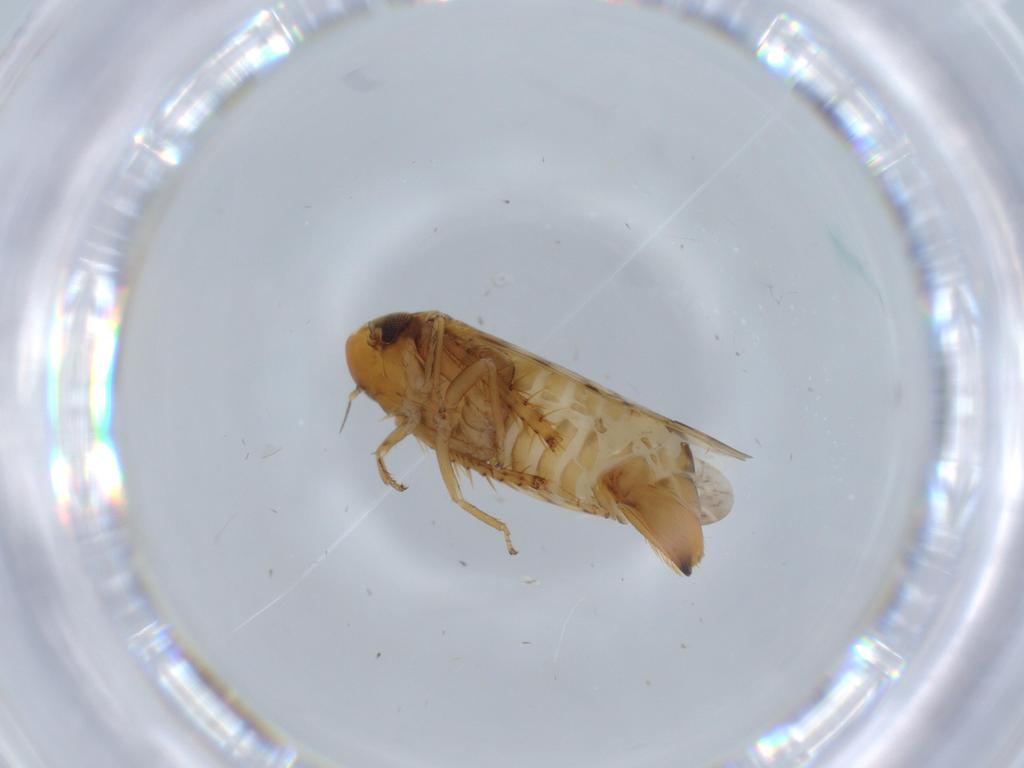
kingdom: Animalia
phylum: Arthropoda
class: Insecta
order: Hemiptera
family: Cicadellidae
